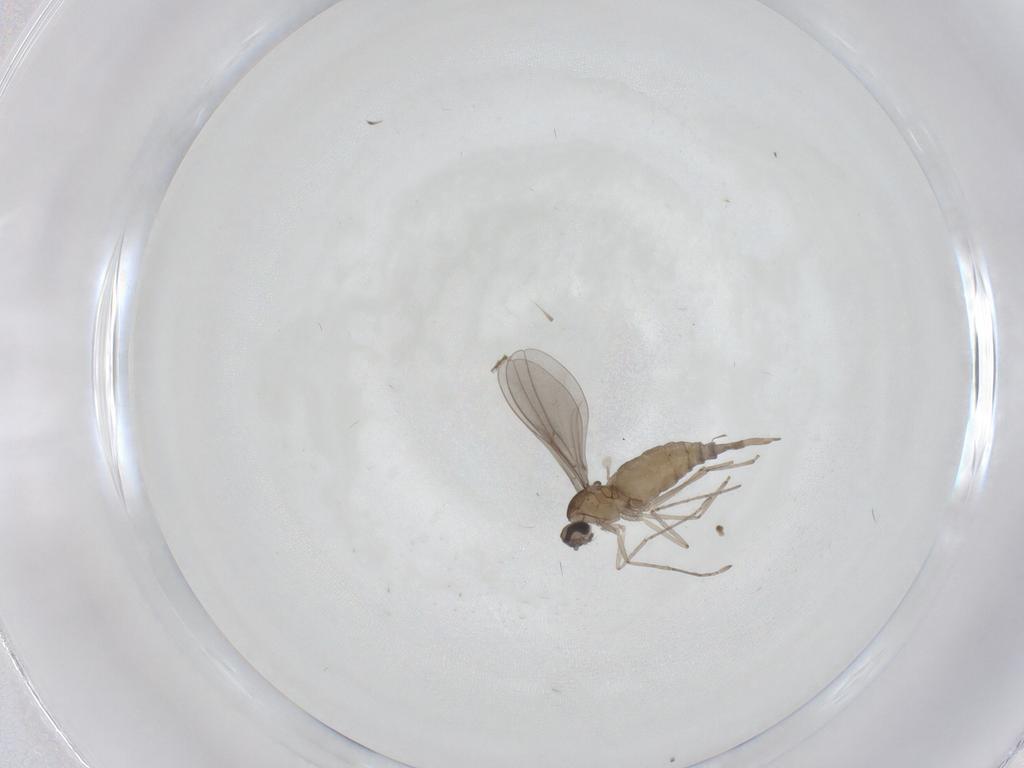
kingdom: Animalia
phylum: Arthropoda
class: Insecta
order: Diptera
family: Cecidomyiidae
